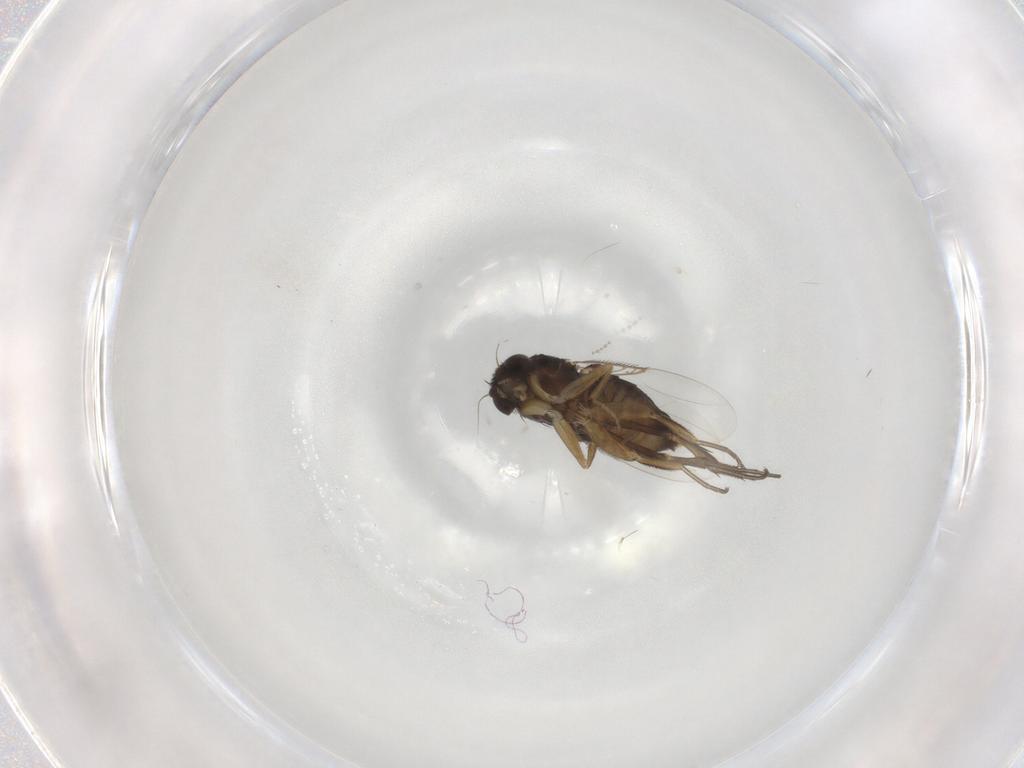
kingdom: Animalia
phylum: Arthropoda
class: Insecta
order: Diptera
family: Phoridae
